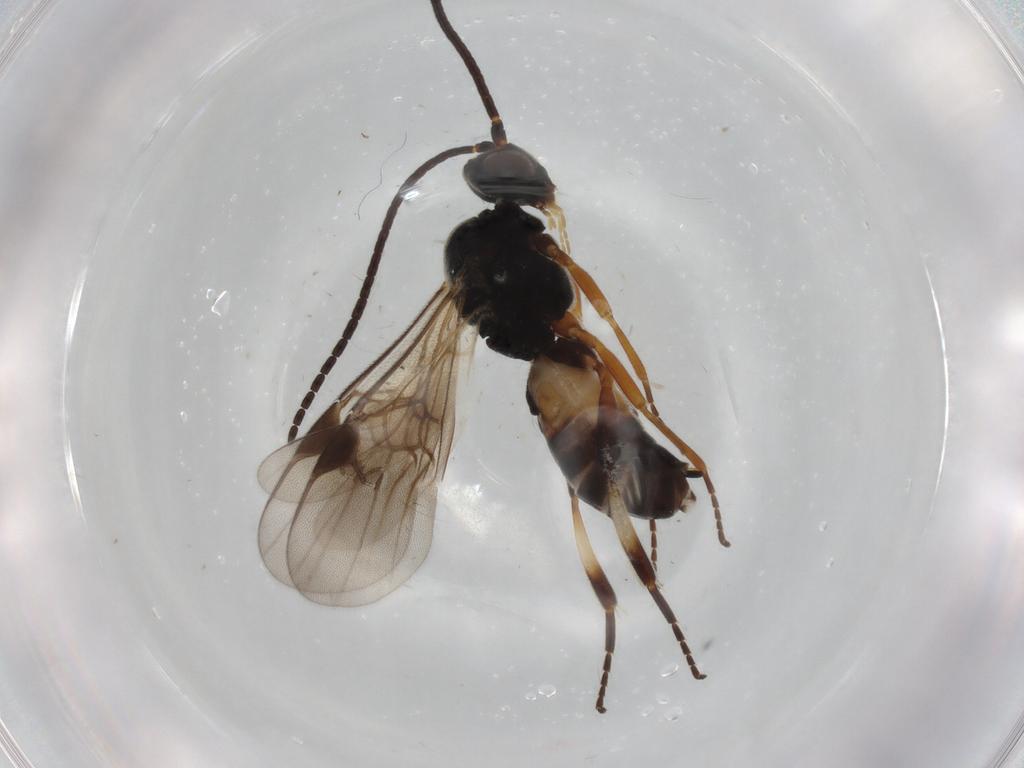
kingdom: Animalia
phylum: Arthropoda
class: Insecta
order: Hymenoptera
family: Braconidae
